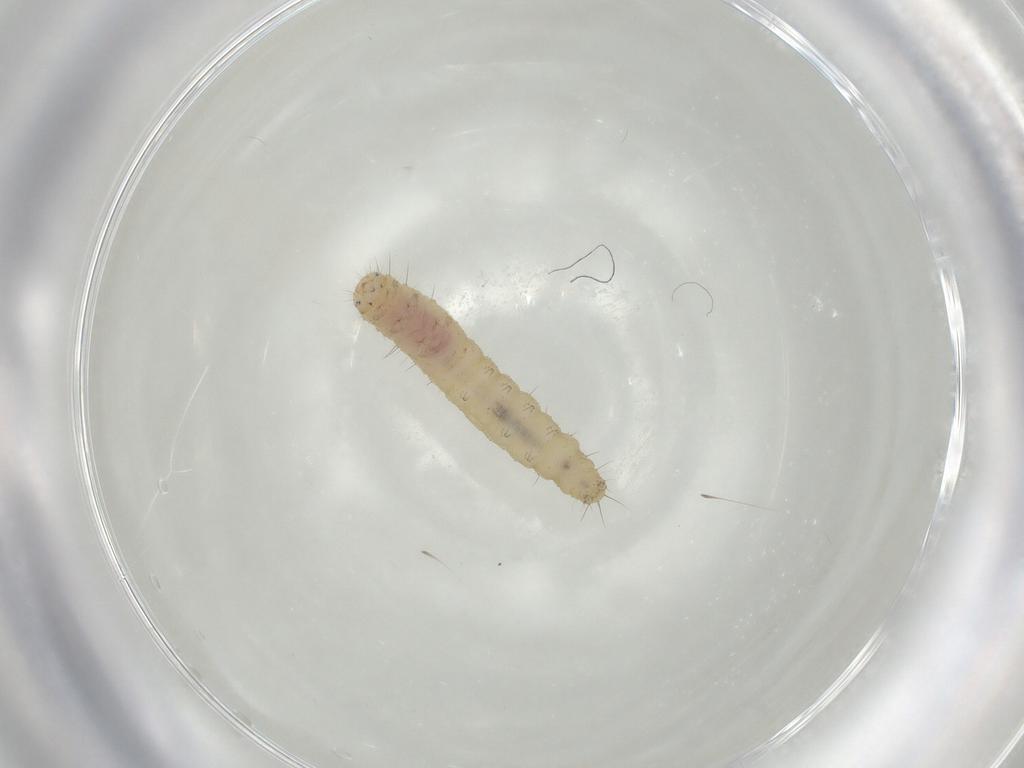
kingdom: Animalia
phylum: Arthropoda
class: Insecta
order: Lepidoptera
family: Gelechiidae
